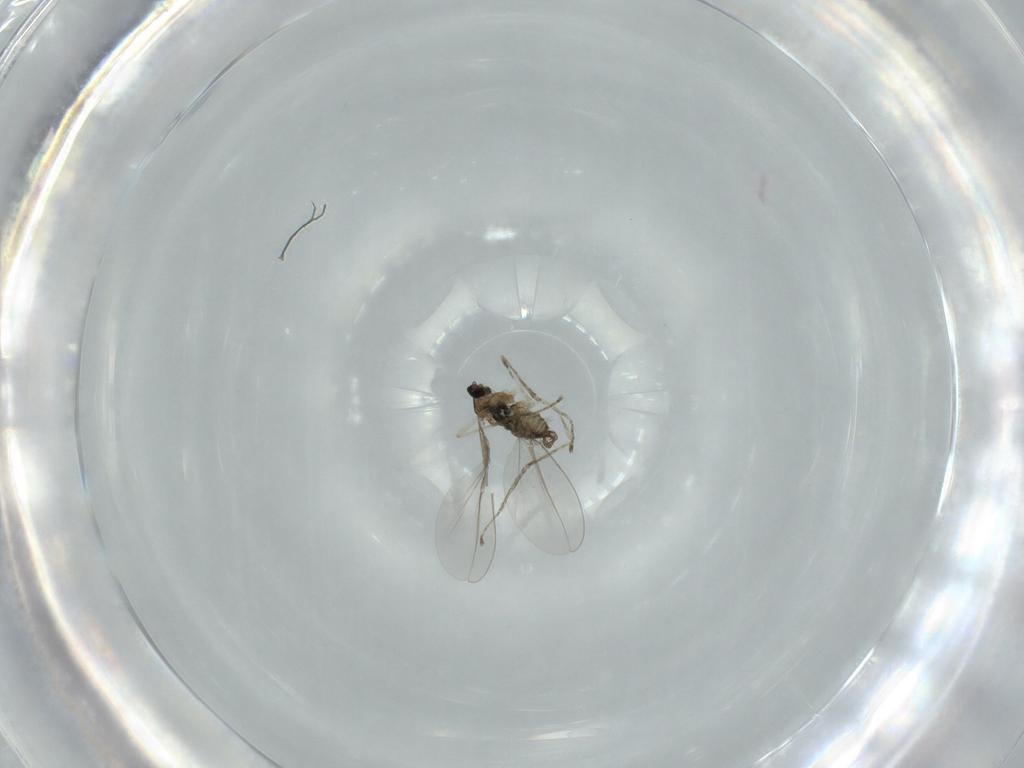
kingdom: Animalia
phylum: Arthropoda
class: Insecta
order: Diptera
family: Cecidomyiidae
